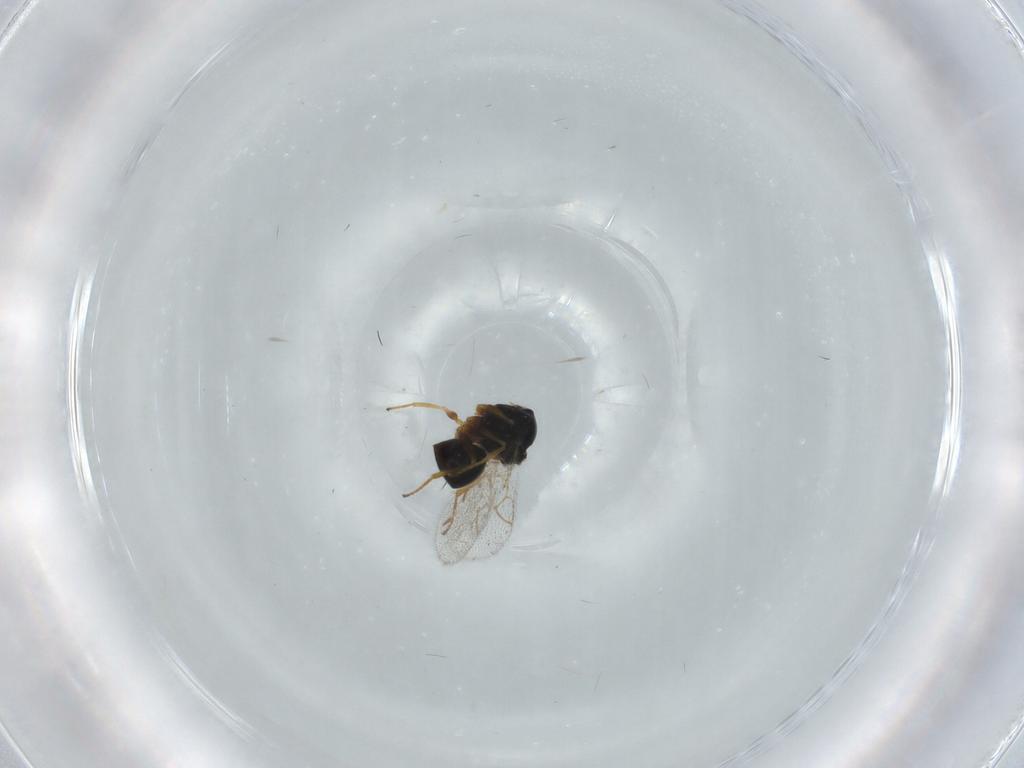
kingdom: Animalia
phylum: Arthropoda
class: Insecta
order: Hymenoptera
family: Figitidae
